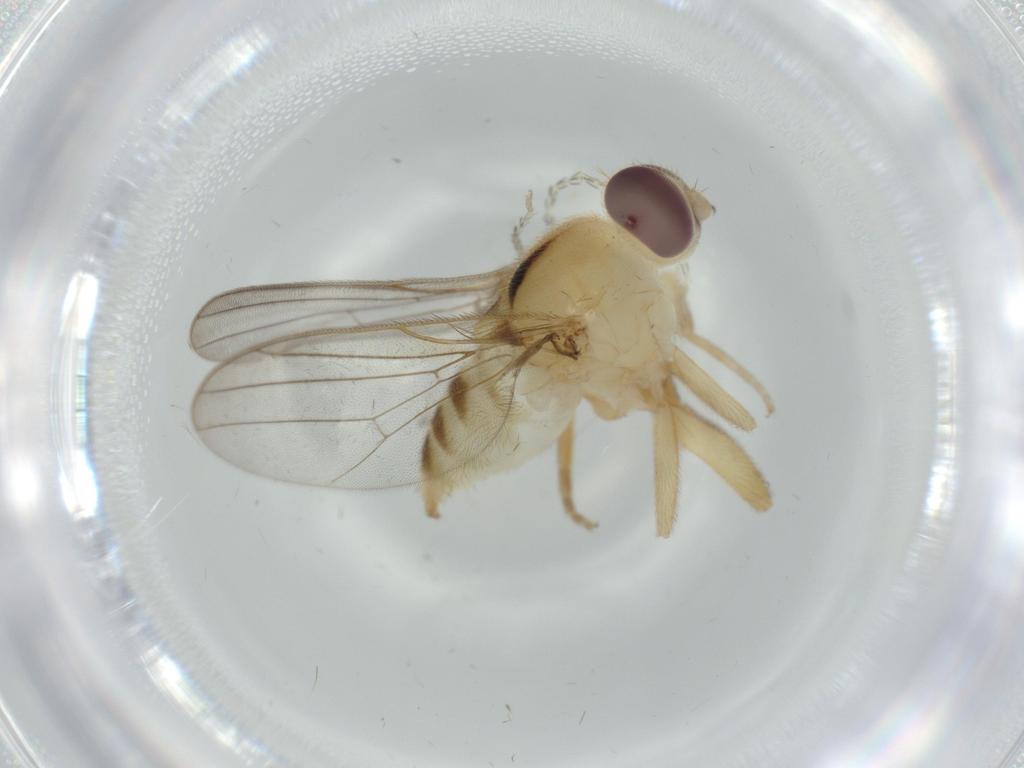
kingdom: Animalia
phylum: Arthropoda
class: Insecta
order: Diptera
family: Chloropidae
